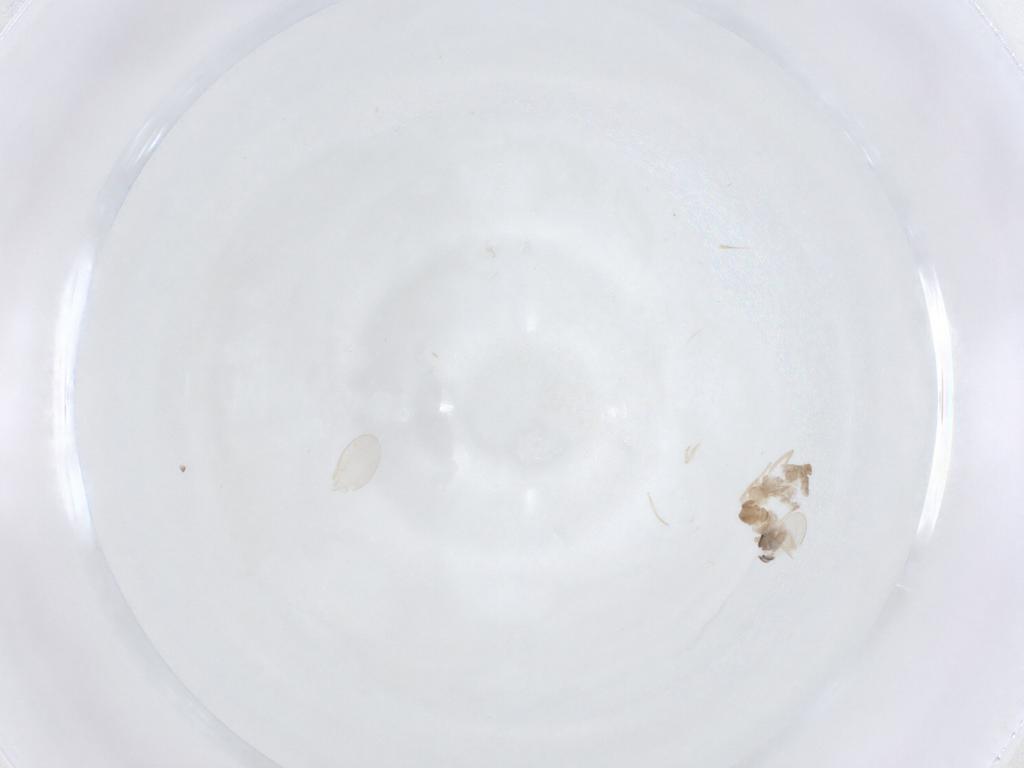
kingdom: Animalia
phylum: Arthropoda
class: Insecta
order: Diptera
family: Cecidomyiidae
